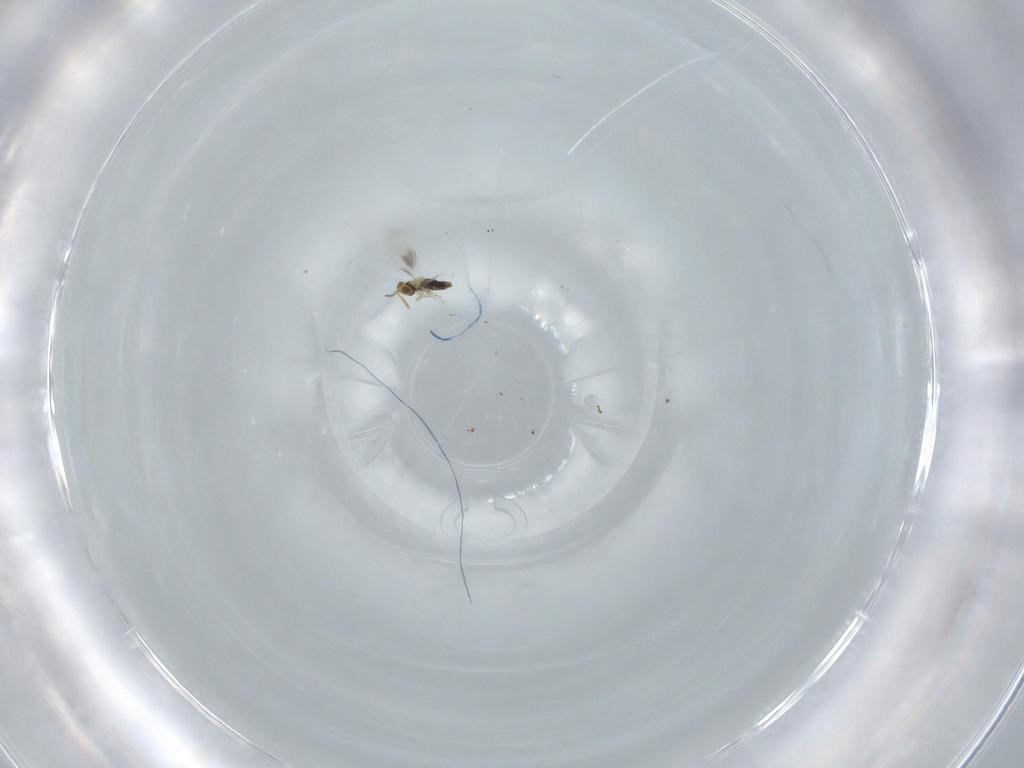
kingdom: Animalia
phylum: Arthropoda
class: Insecta
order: Hymenoptera
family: Aphelinidae
